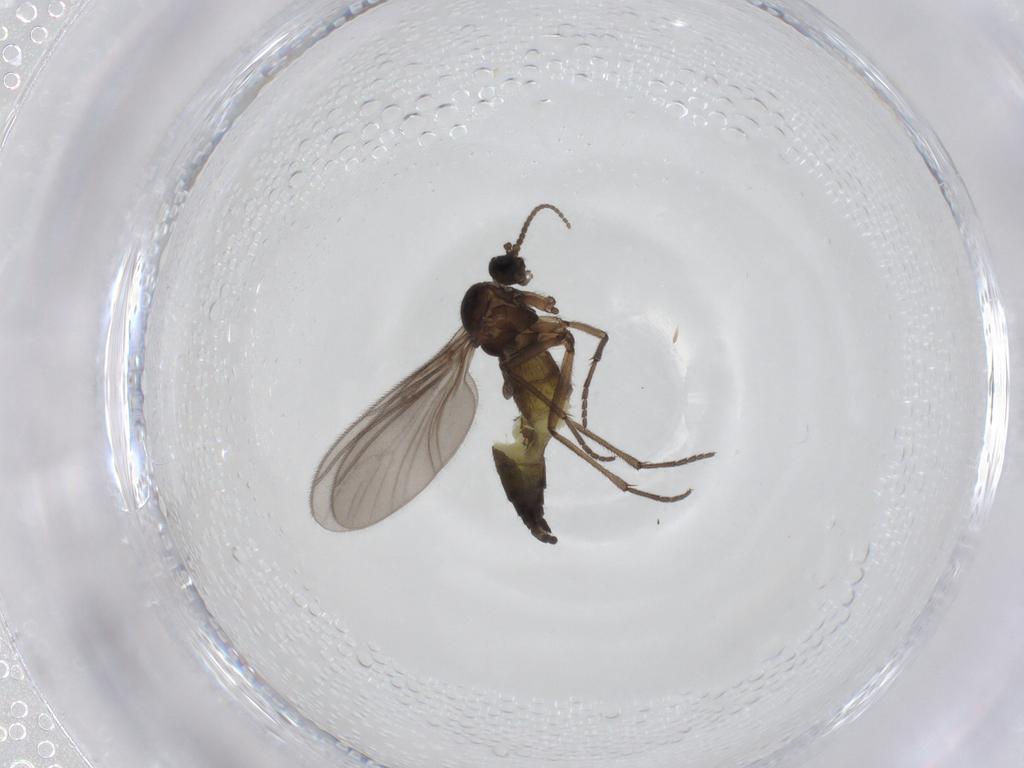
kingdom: Animalia
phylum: Arthropoda
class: Insecta
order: Diptera
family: Sciaridae
